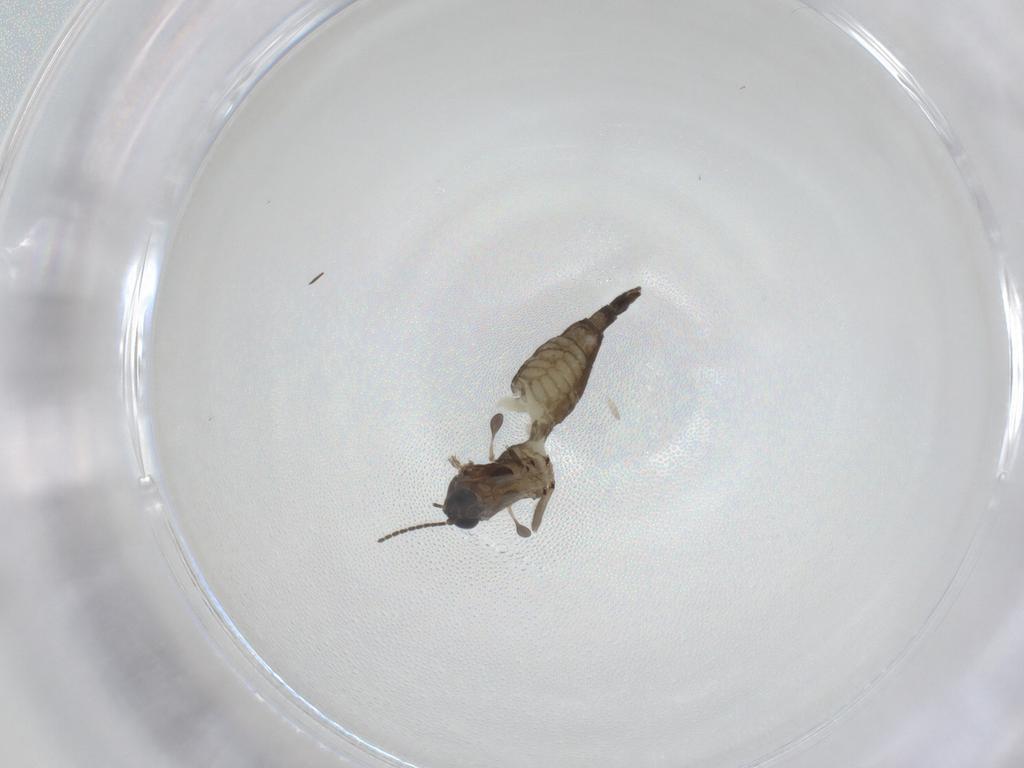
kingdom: Animalia
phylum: Arthropoda
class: Insecta
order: Diptera
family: Sciaridae
